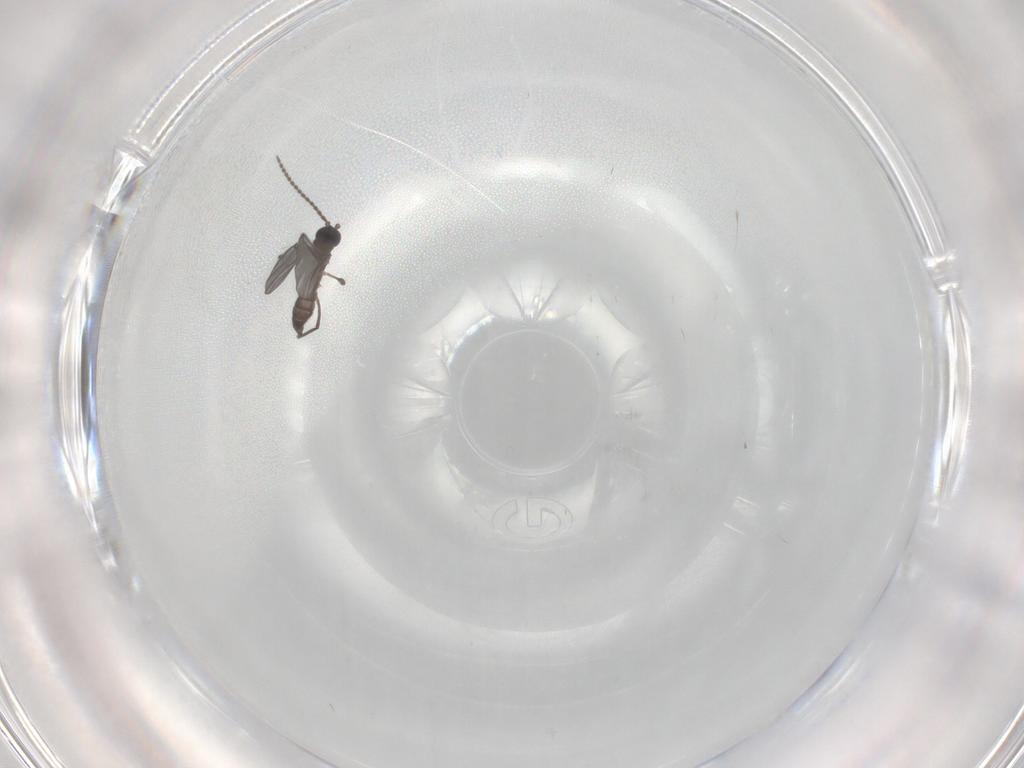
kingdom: Animalia
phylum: Arthropoda
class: Insecta
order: Diptera
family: Sciaridae
